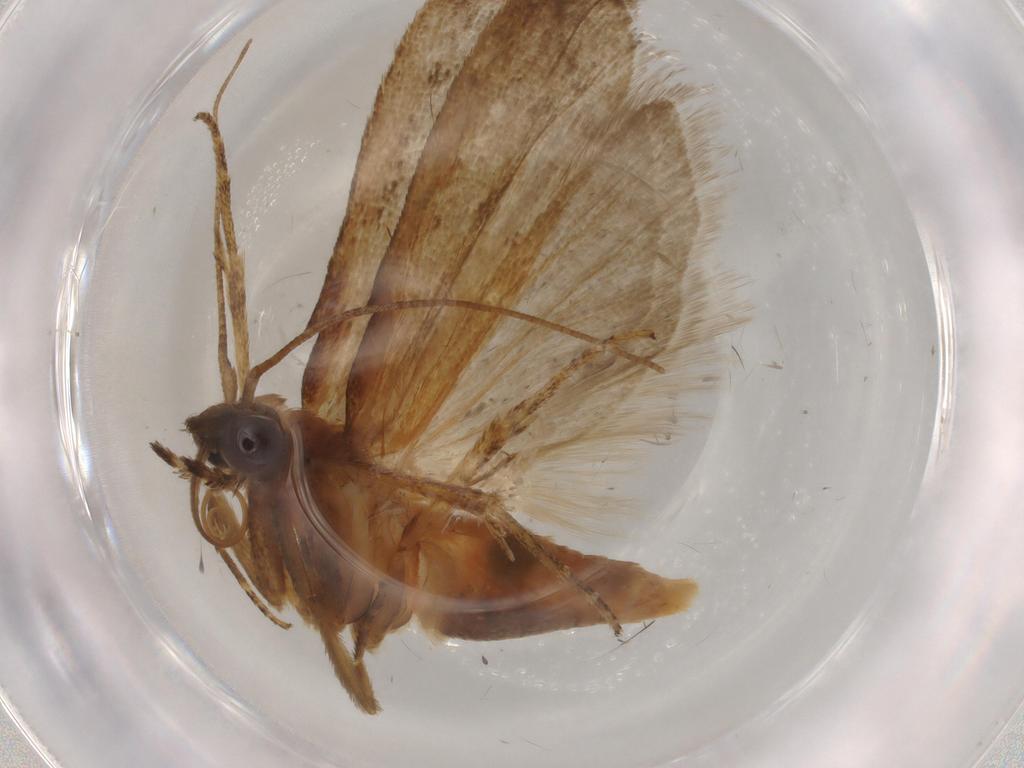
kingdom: Animalia
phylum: Arthropoda
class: Insecta
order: Lepidoptera
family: Tineidae
